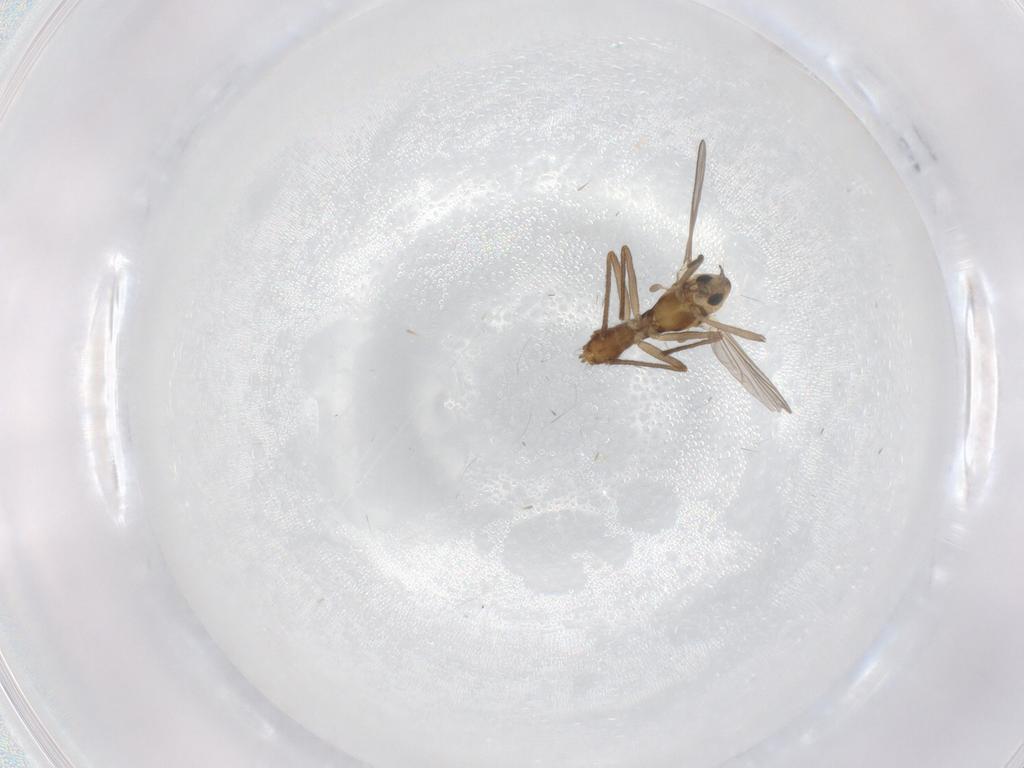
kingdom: Animalia
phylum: Arthropoda
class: Insecta
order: Diptera
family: Chironomidae
